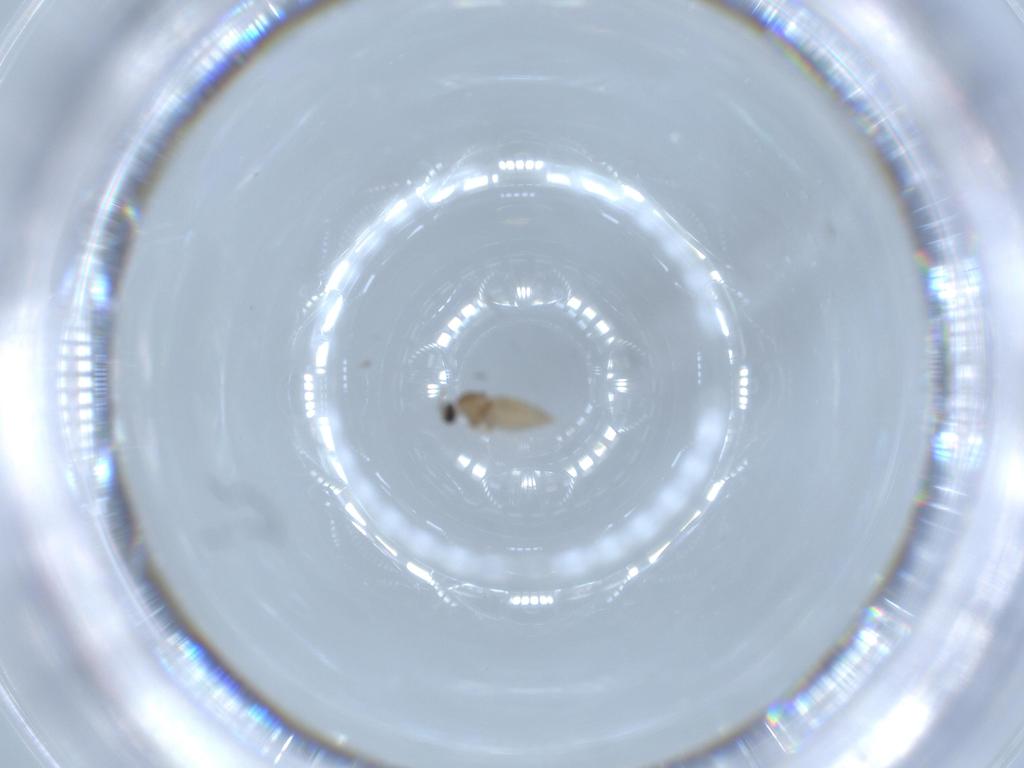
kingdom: Animalia
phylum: Arthropoda
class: Insecta
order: Diptera
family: Cecidomyiidae
